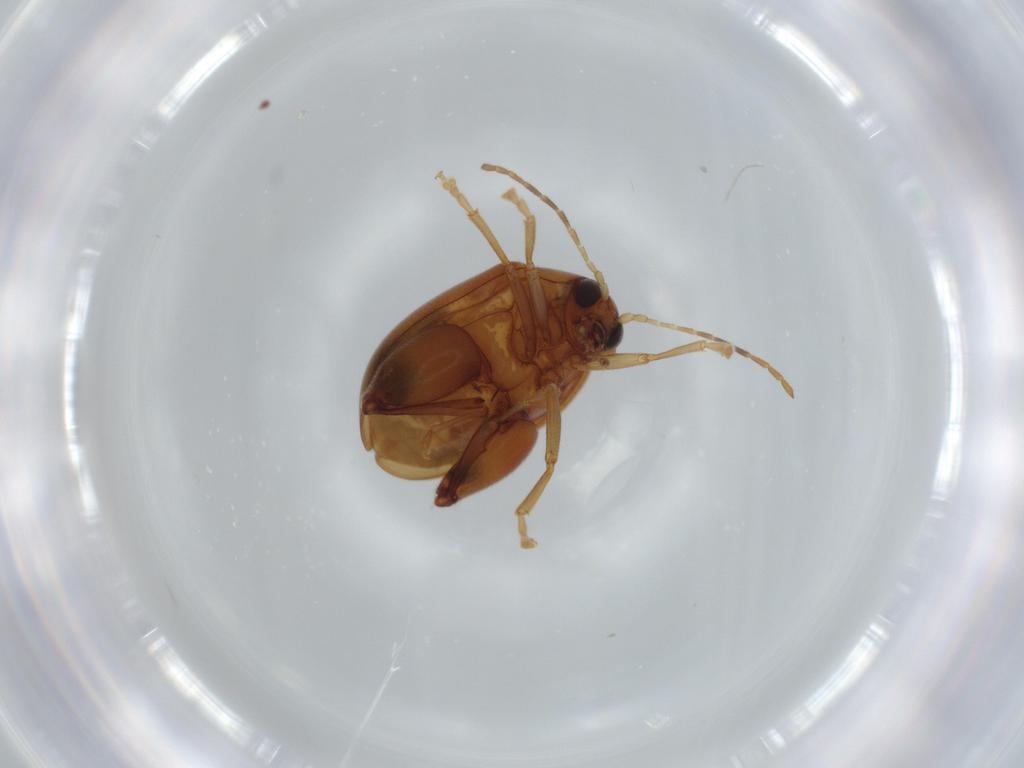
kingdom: Animalia
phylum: Arthropoda
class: Insecta
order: Coleoptera
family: Chrysomelidae
